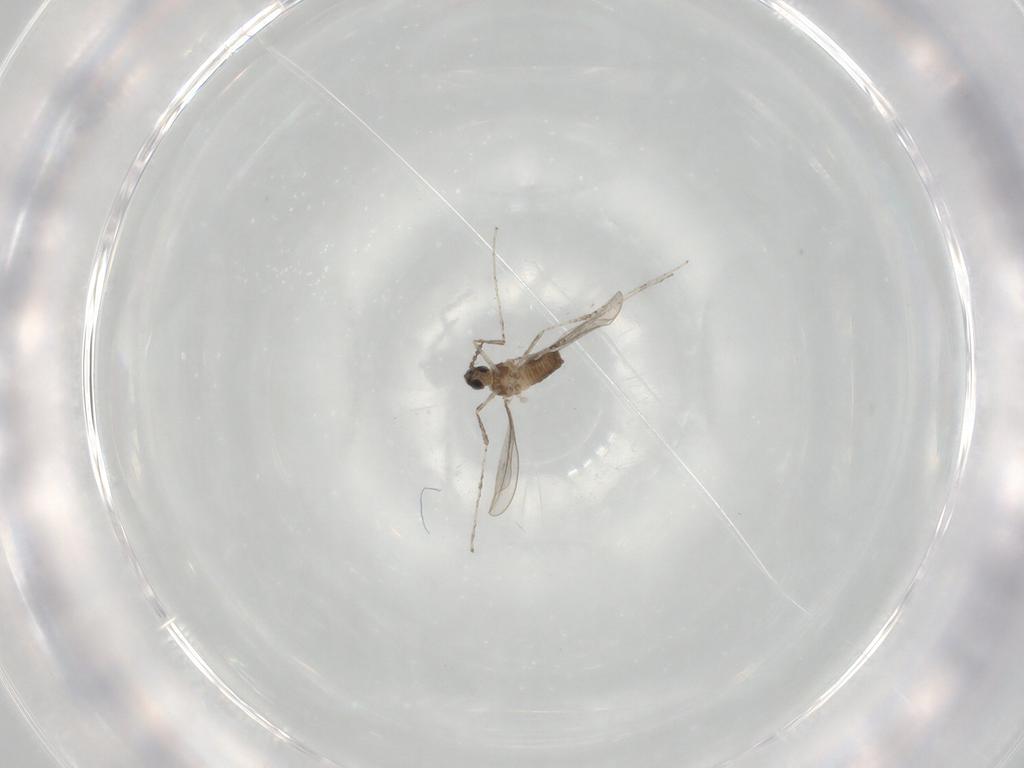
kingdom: Animalia
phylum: Arthropoda
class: Insecta
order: Diptera
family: Cecidomyiidae
